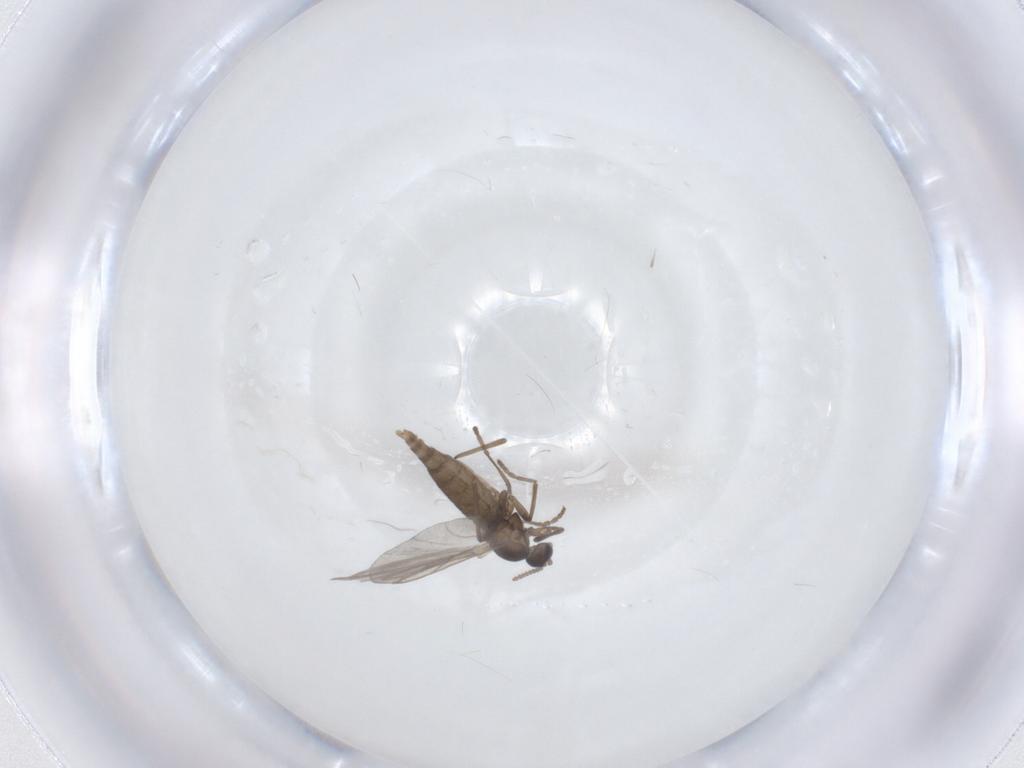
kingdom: Animalia
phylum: Arthropoda
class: Insecta
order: Diptera
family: Cecidomyiidae
